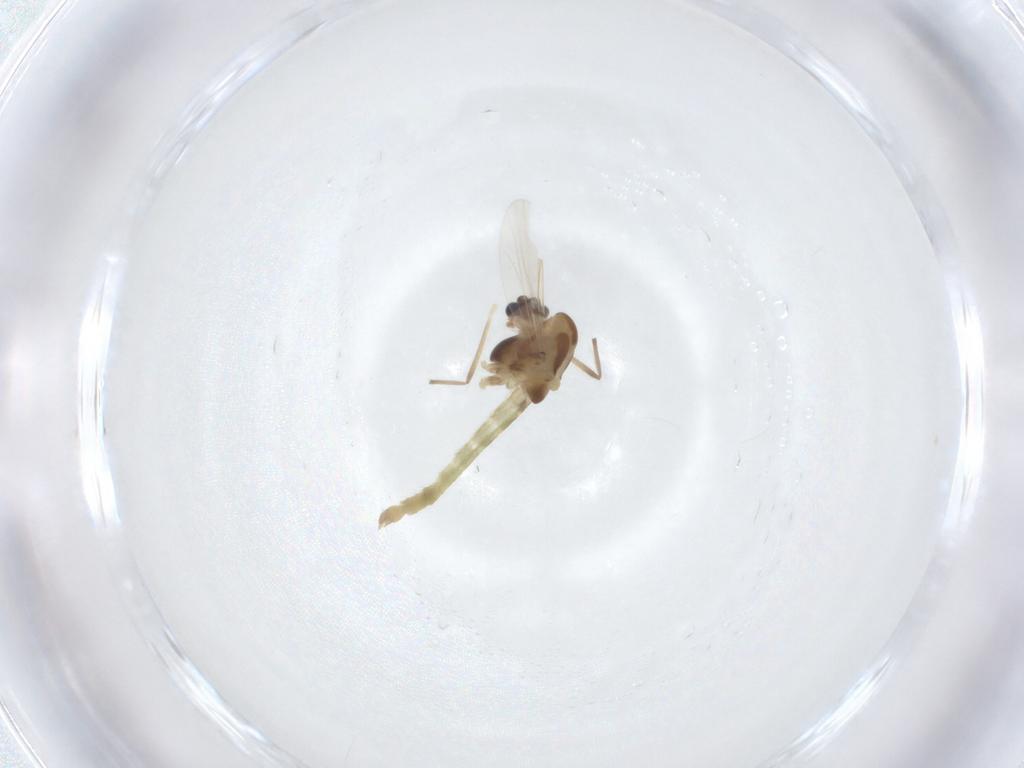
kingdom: Animalia
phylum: Arthropoda
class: Insecta
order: Diptera
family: Chironomidae
